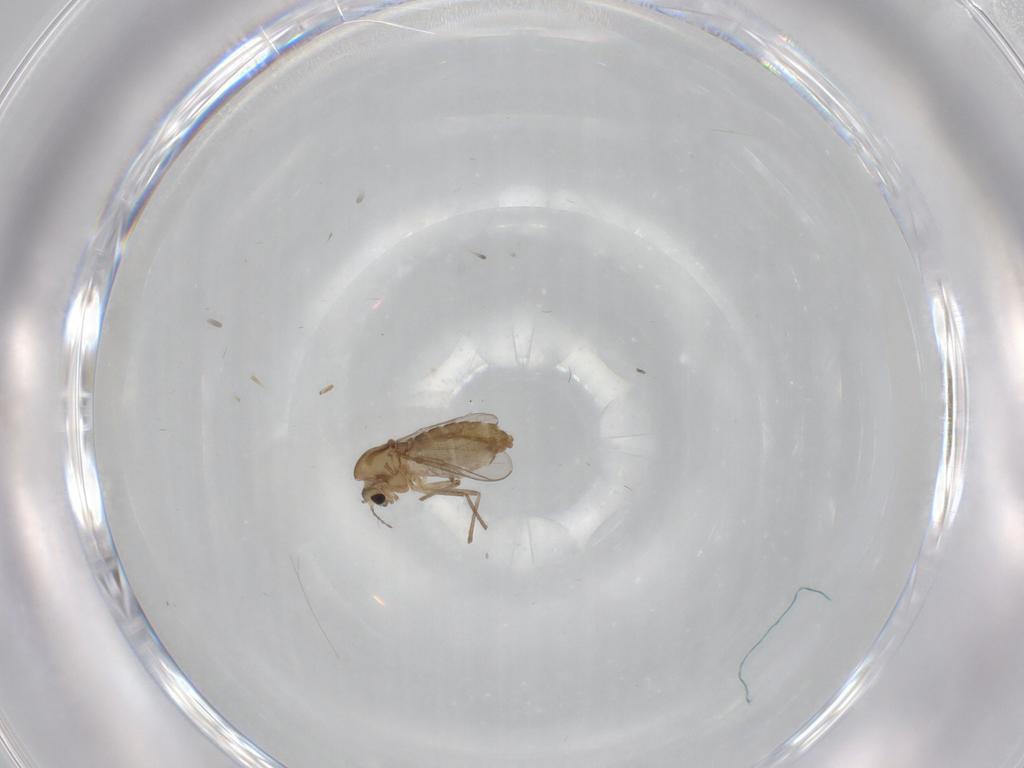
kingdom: Animalia
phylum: Arthropoda
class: Insecta
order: Diptera
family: Chironomidae
